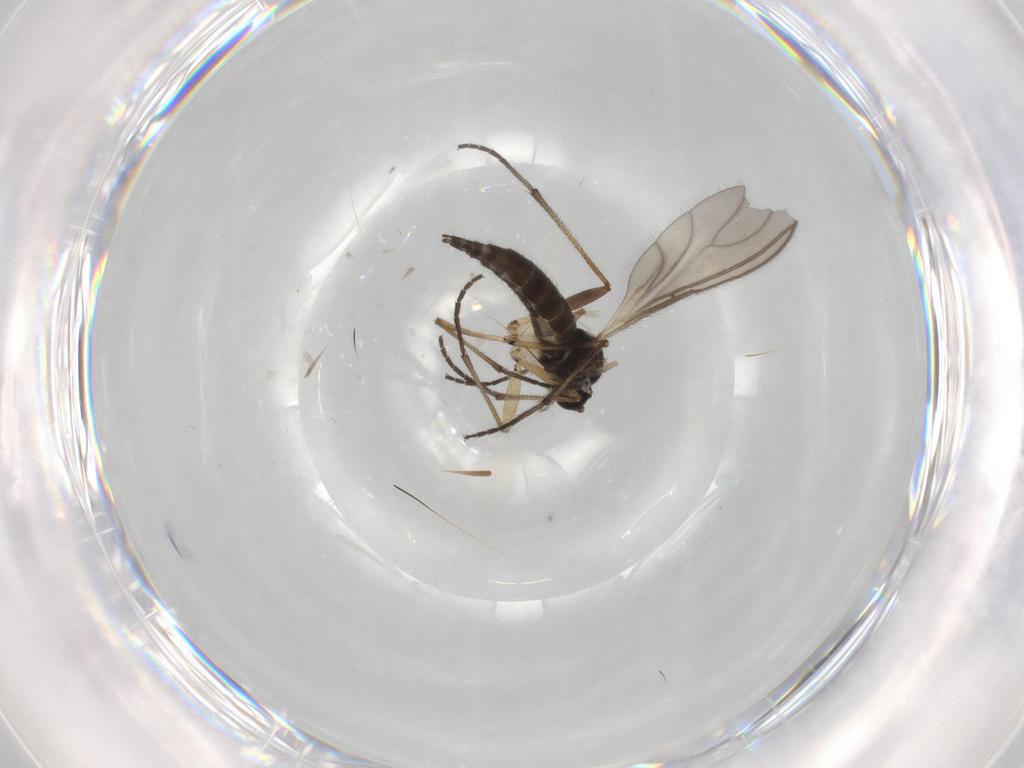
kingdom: Animalia
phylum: Arthropoda
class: Insecta
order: Diptera
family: Sciaridae
